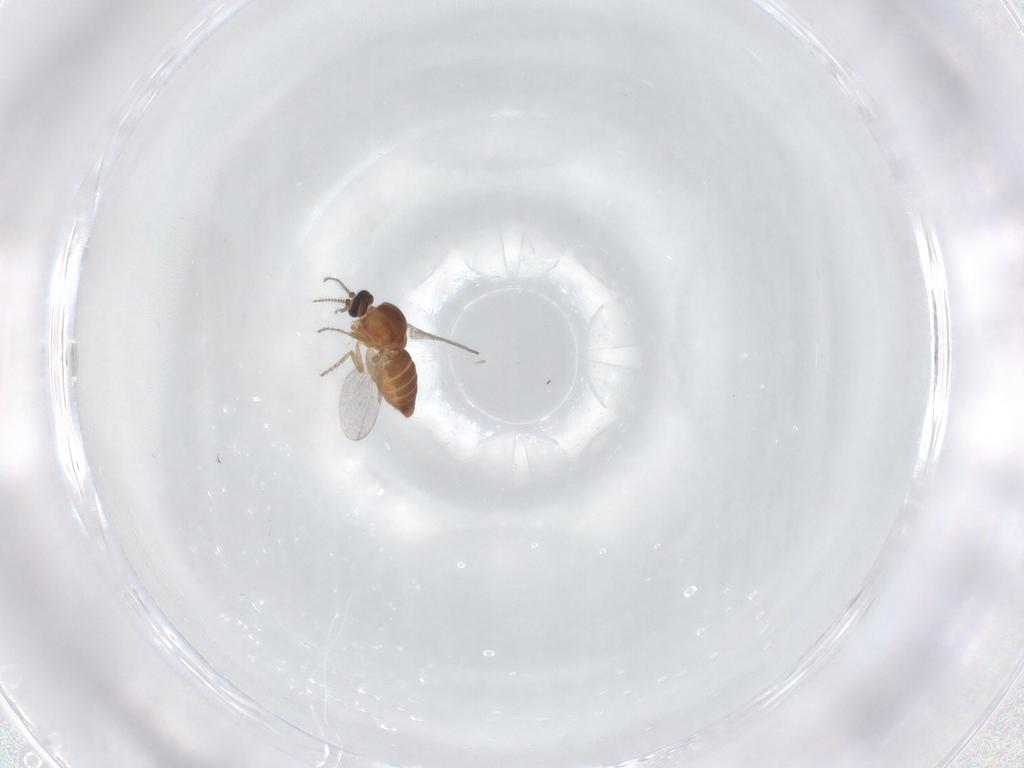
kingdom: Animalia
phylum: Arthropoda
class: Insecta
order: Diptera
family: Ceratopogonidae
